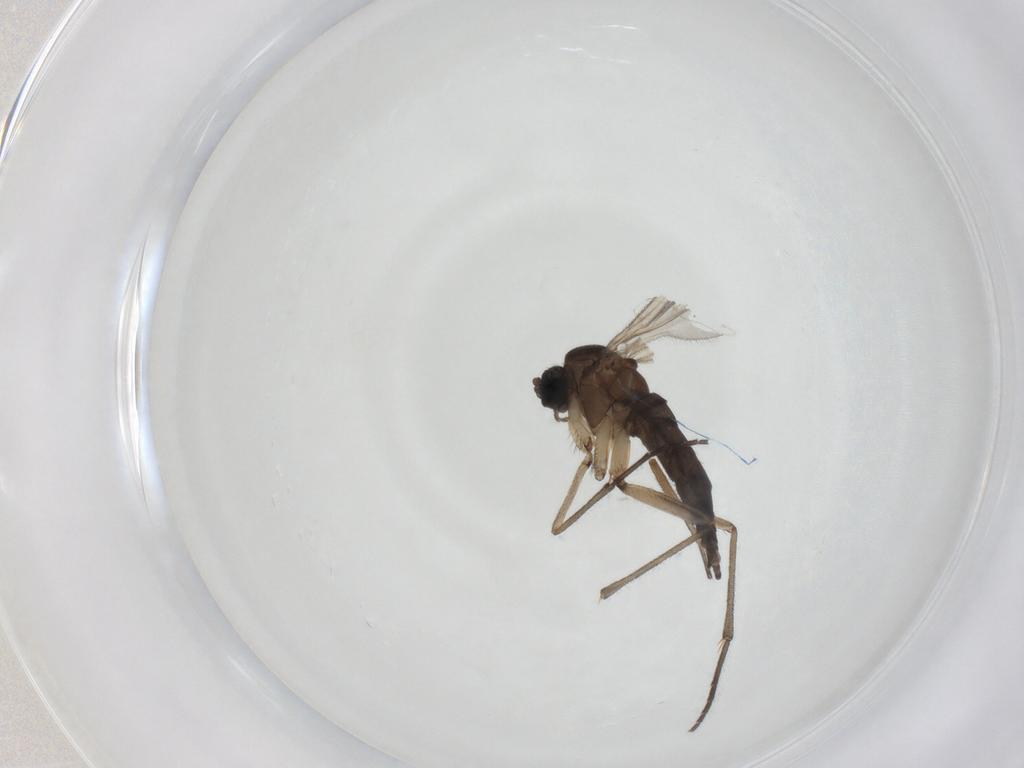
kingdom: Animalia
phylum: Arthropoda
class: Insecta
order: Diptera
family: Sciaridae
